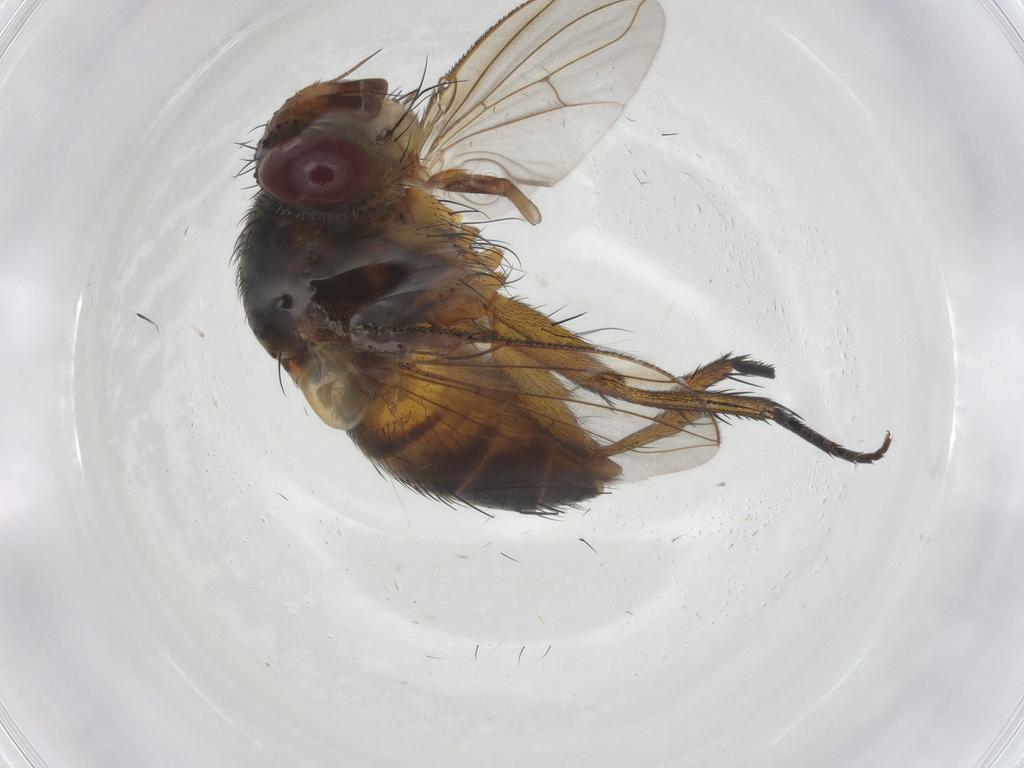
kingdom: Animalia
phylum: Arthropoda
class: Insecta
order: Diptera
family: Tachinidae
